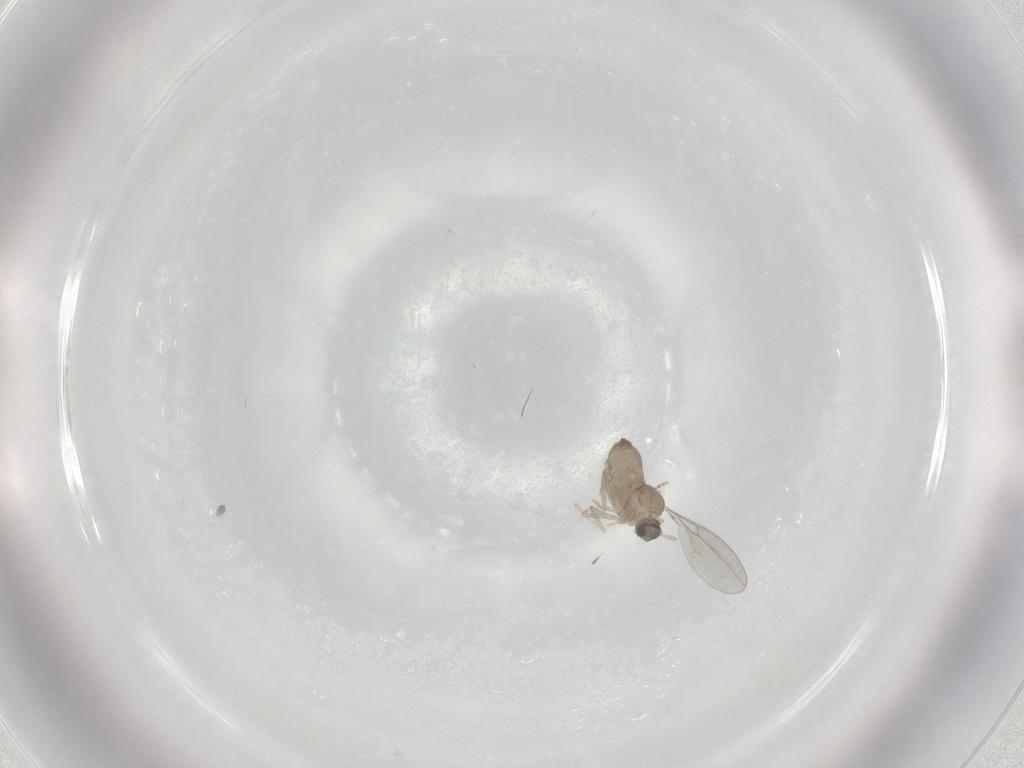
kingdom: Animalia
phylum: Arthropoda
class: Insecta
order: Diptera
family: Cecidomyiidae
